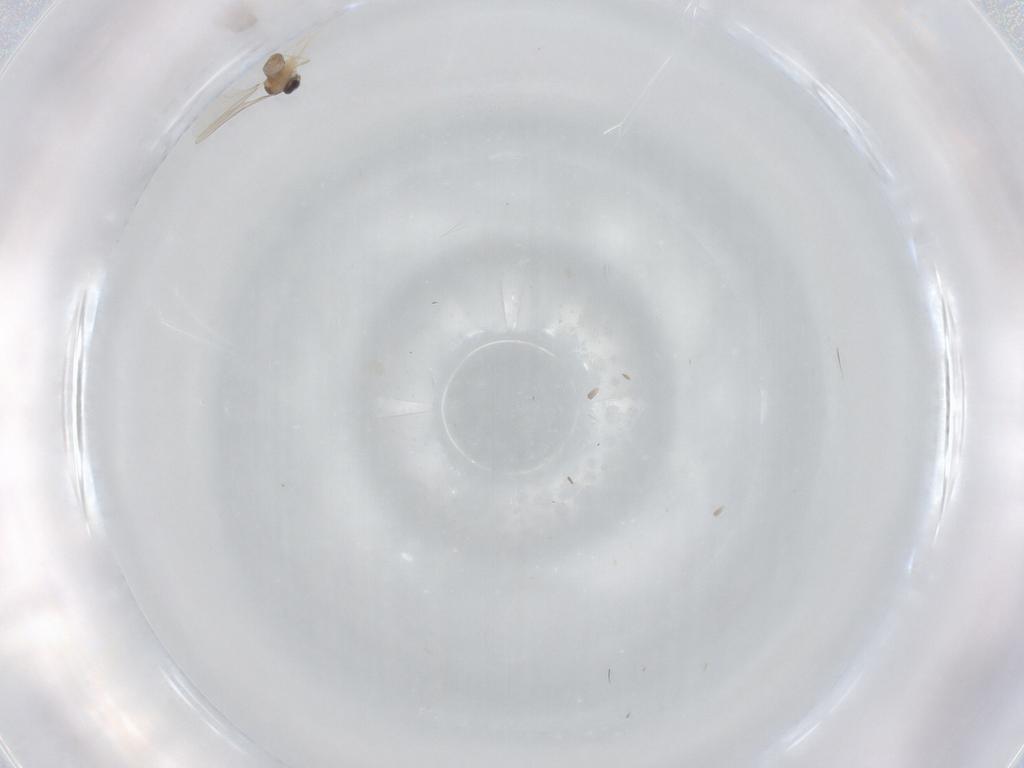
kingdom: Animalia
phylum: Arthropoda
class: Insecta
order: Diptera
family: Cecidomyiidae
